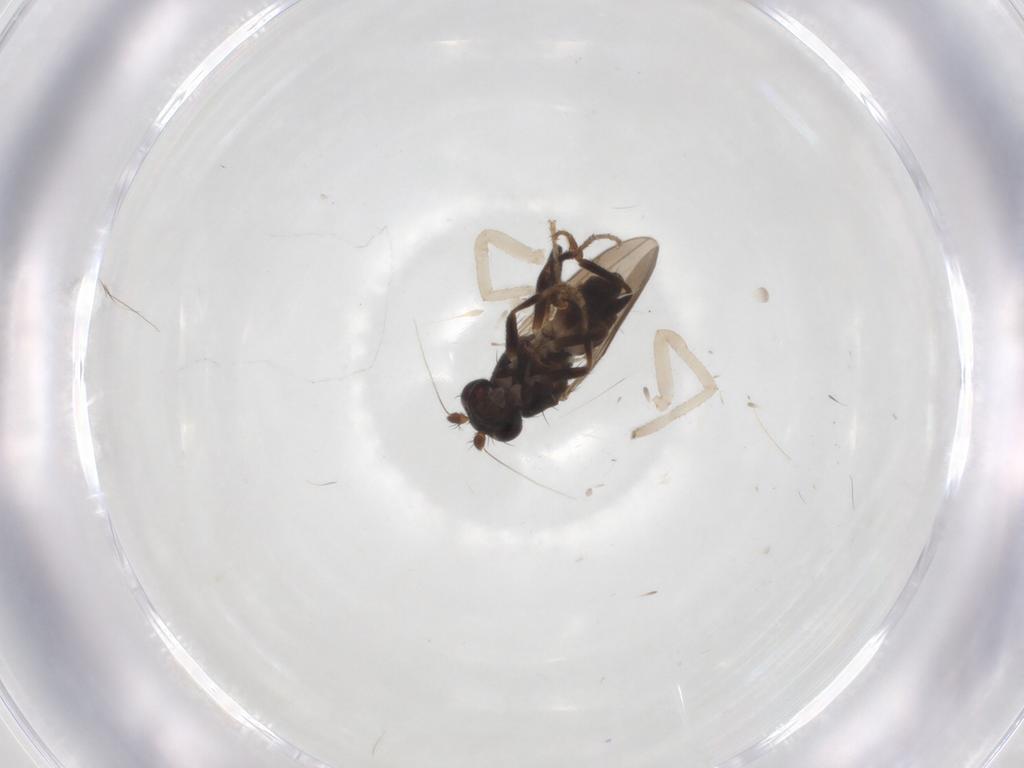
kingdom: Animalia
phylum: Arthropoda
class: Insecta
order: Diptera
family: Sphaeroceridae
